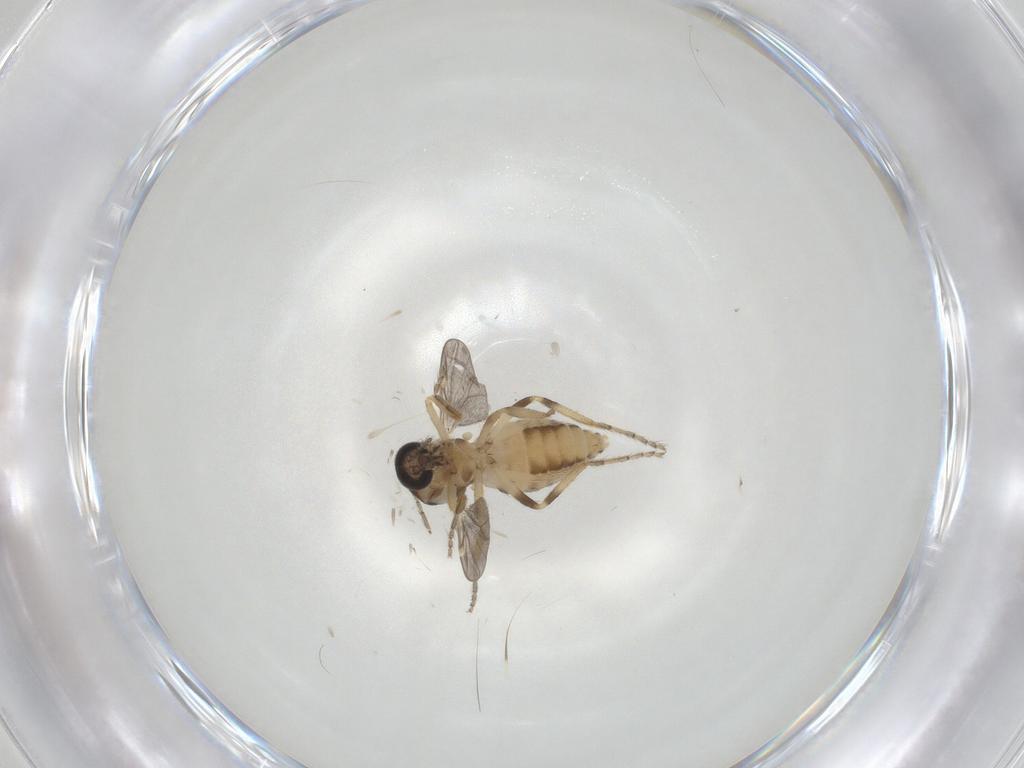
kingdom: Animalia
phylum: Arthropoda
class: Insecta
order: Diptera
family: Ceratopogonidae
